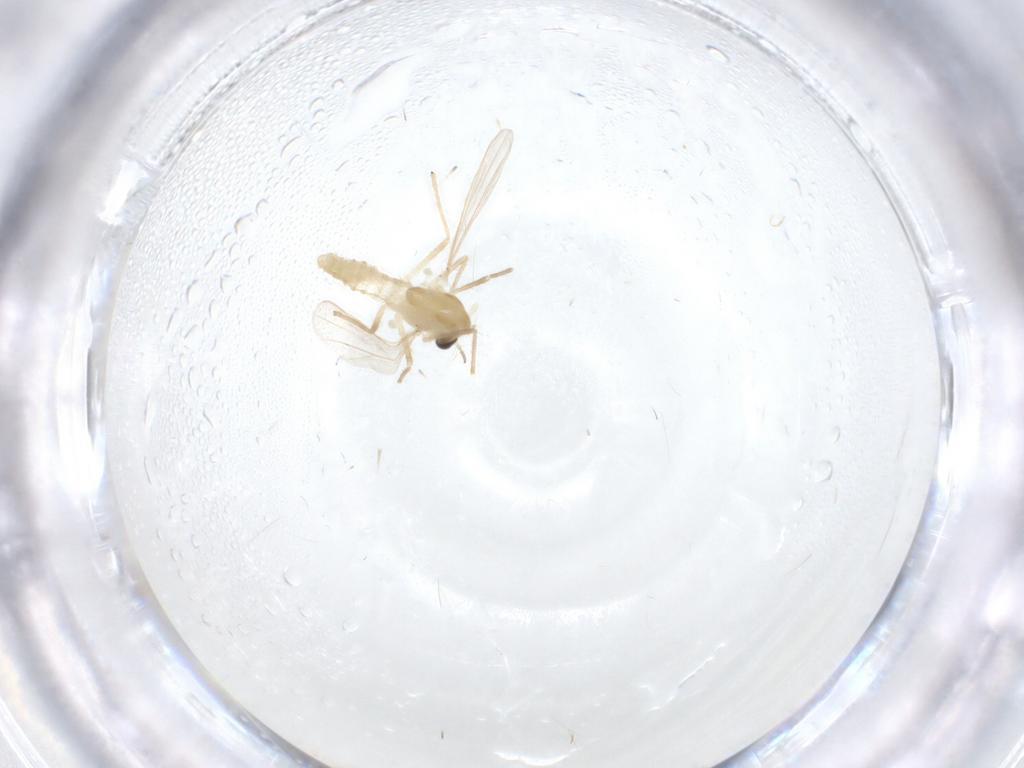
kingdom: Animalia
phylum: Arthropoda
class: Insecta
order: Diptera
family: Chironomidae
